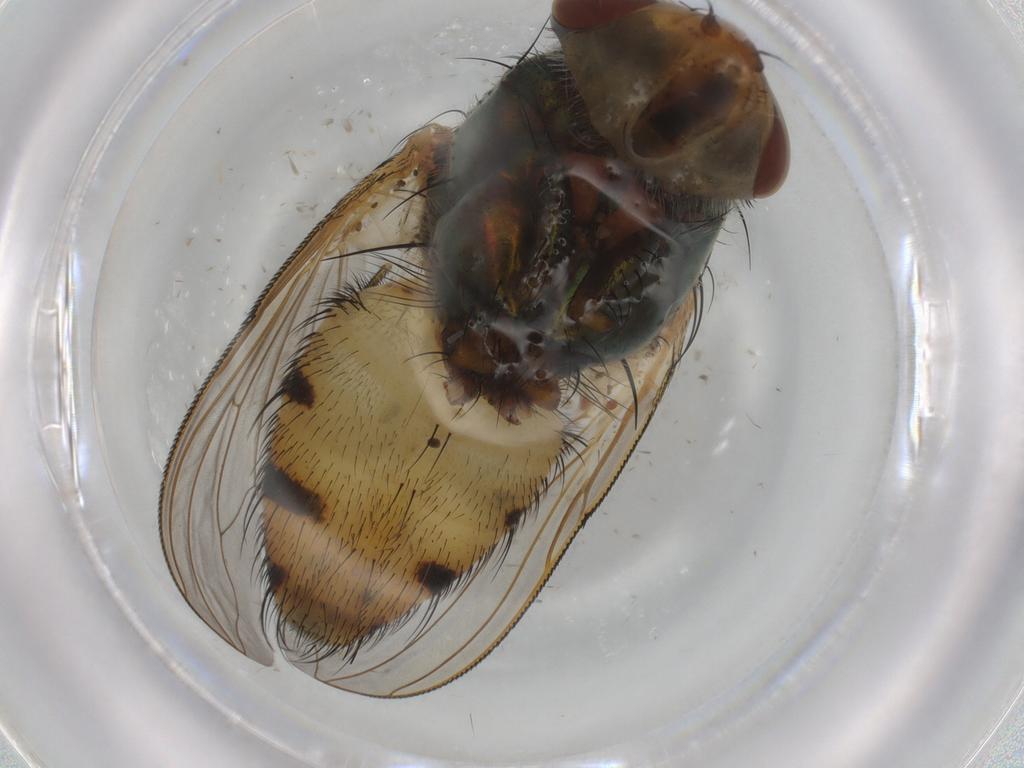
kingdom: Animalia
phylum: Arthropoda
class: Insecta
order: Diptera
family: Calliphoridae
